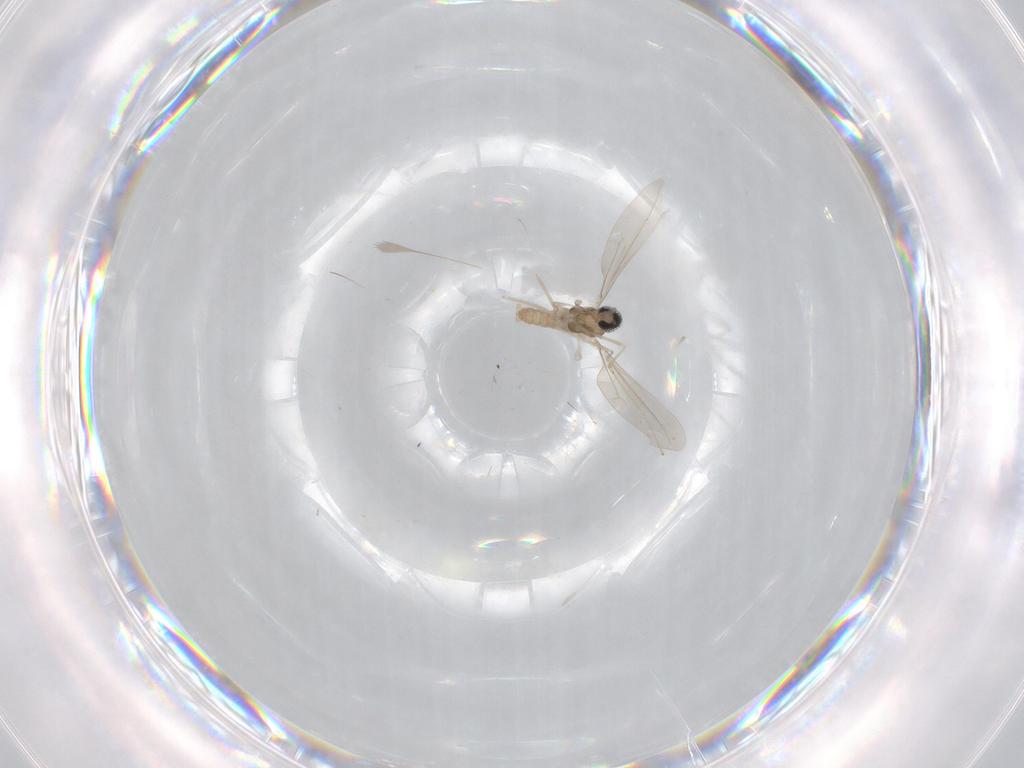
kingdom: Animalia
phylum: Arthropoda
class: Insecta
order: Diptera
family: Cecidomyiidae
